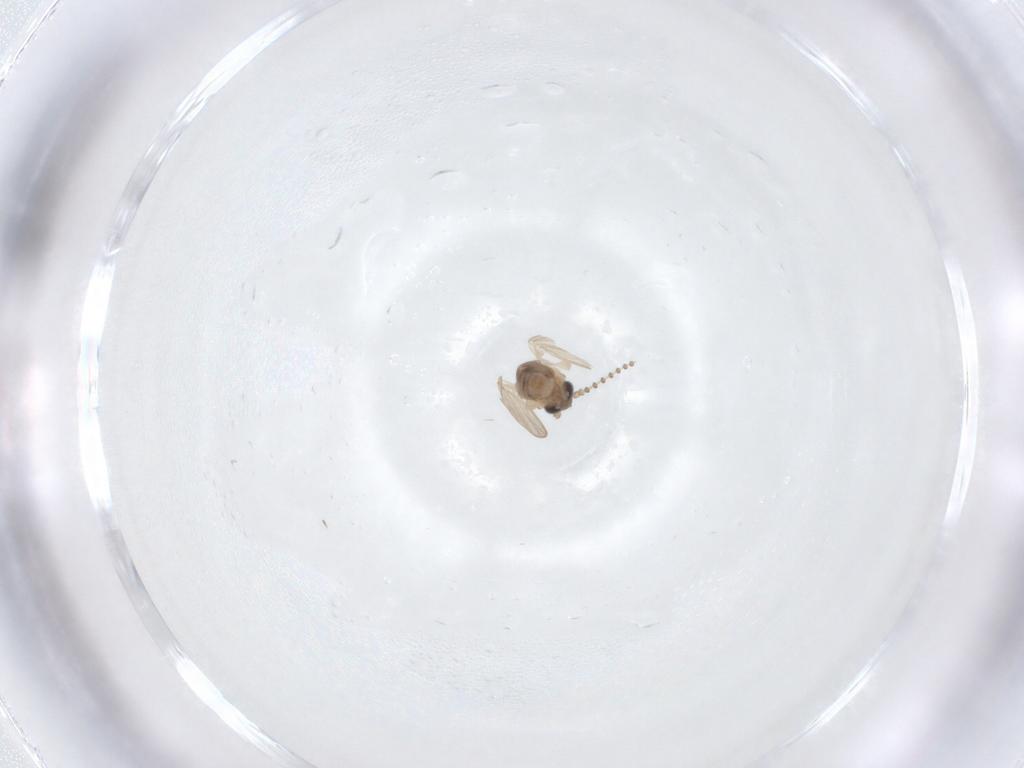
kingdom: Animalia
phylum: Arthropoda
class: Insecta
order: Diptera
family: Psychodidae
